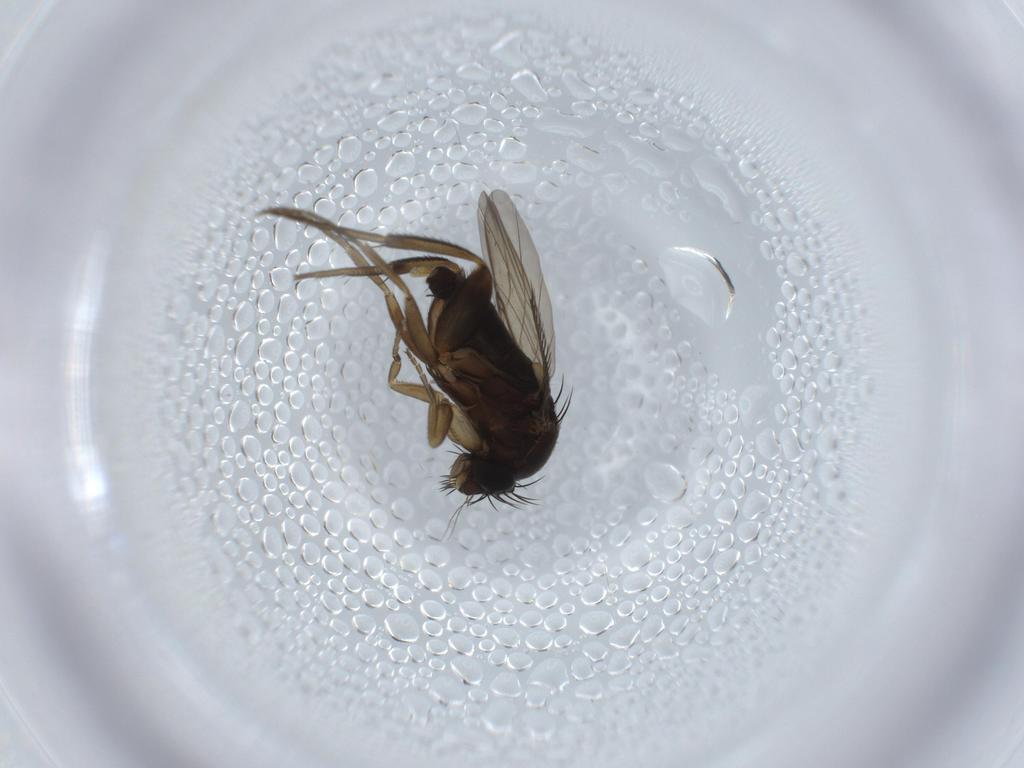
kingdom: Animalia
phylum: Arthropoda
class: Insecta
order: Diptera
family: Phoridae
